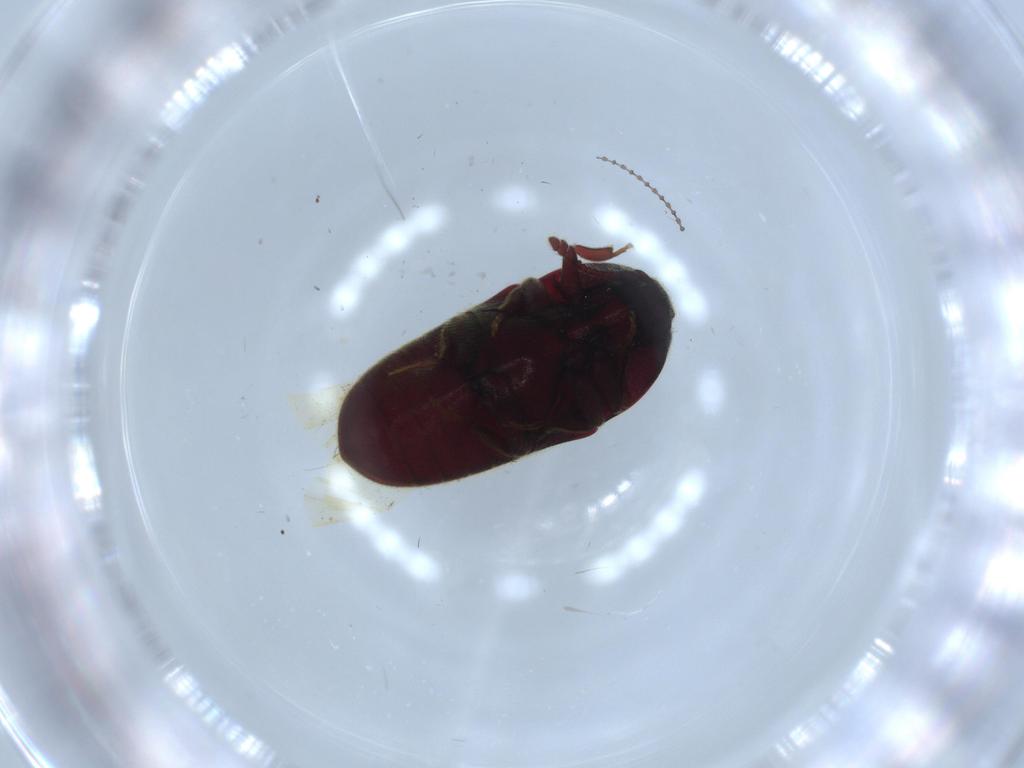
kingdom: Animalia
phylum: Arthropoda
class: Insecta
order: Coleoptera
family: Throscidae
